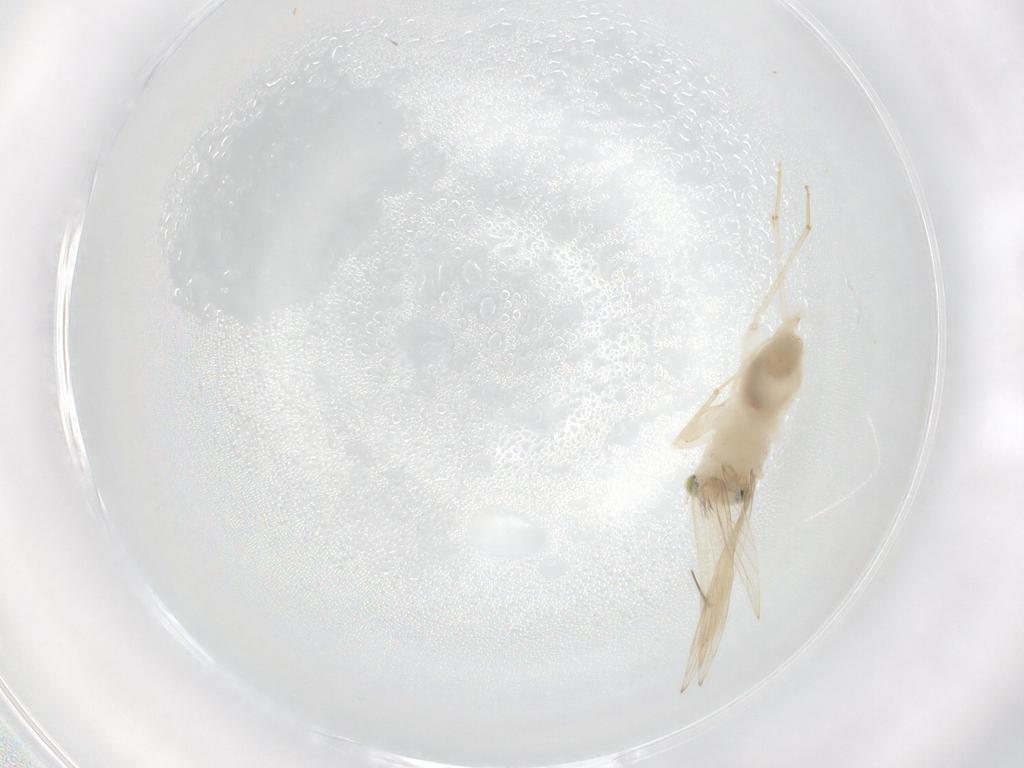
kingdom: Animalia
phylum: Arthropoda
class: Insecta
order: Psocodea
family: Lepidopsocidae
